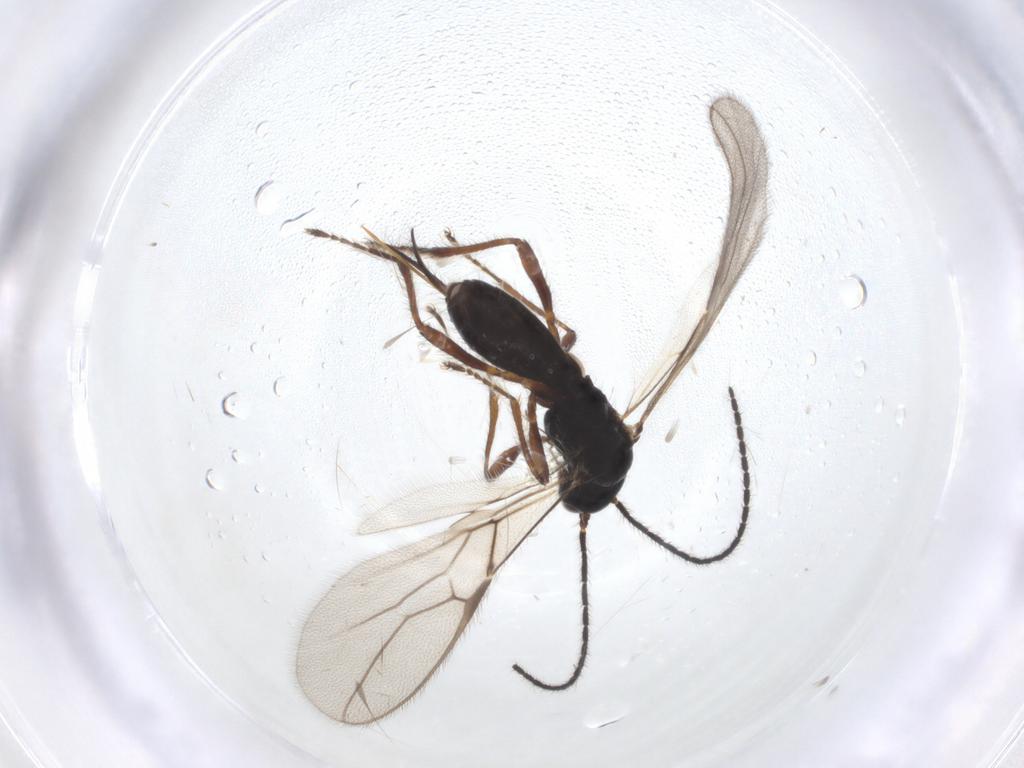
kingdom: Animalia
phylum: Arthropoda
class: Insecta
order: Hymenoptera
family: Braconidae
